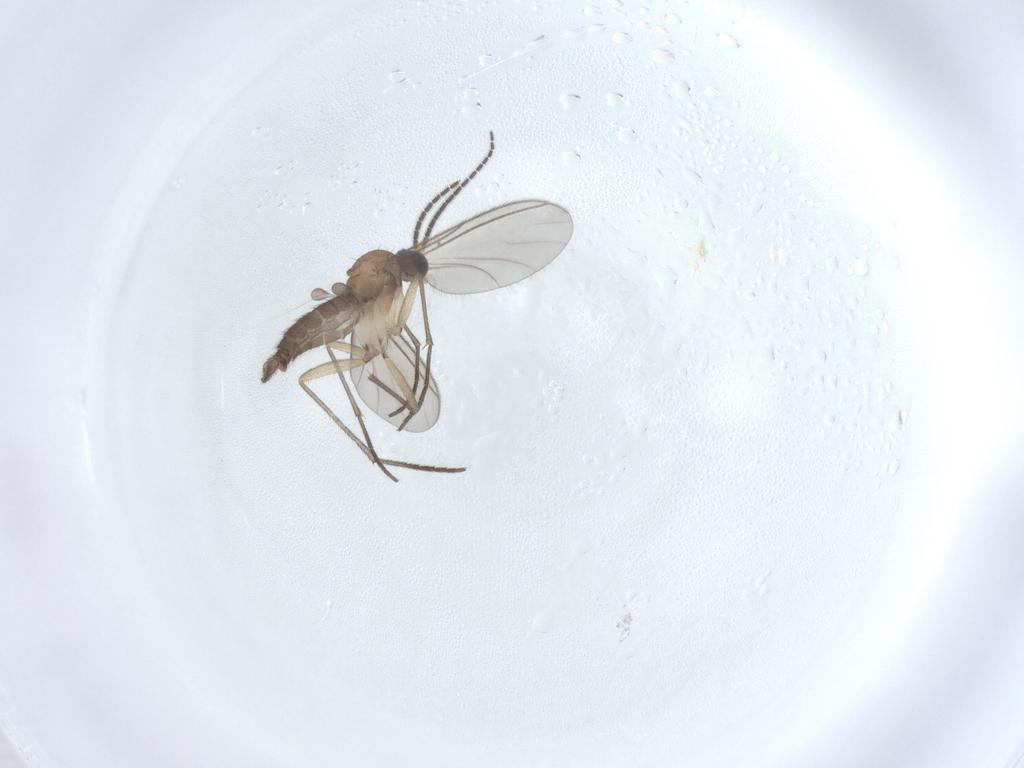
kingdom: Animalia
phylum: Arthropoda
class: Insecta
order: Diptera
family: Sciaridae
